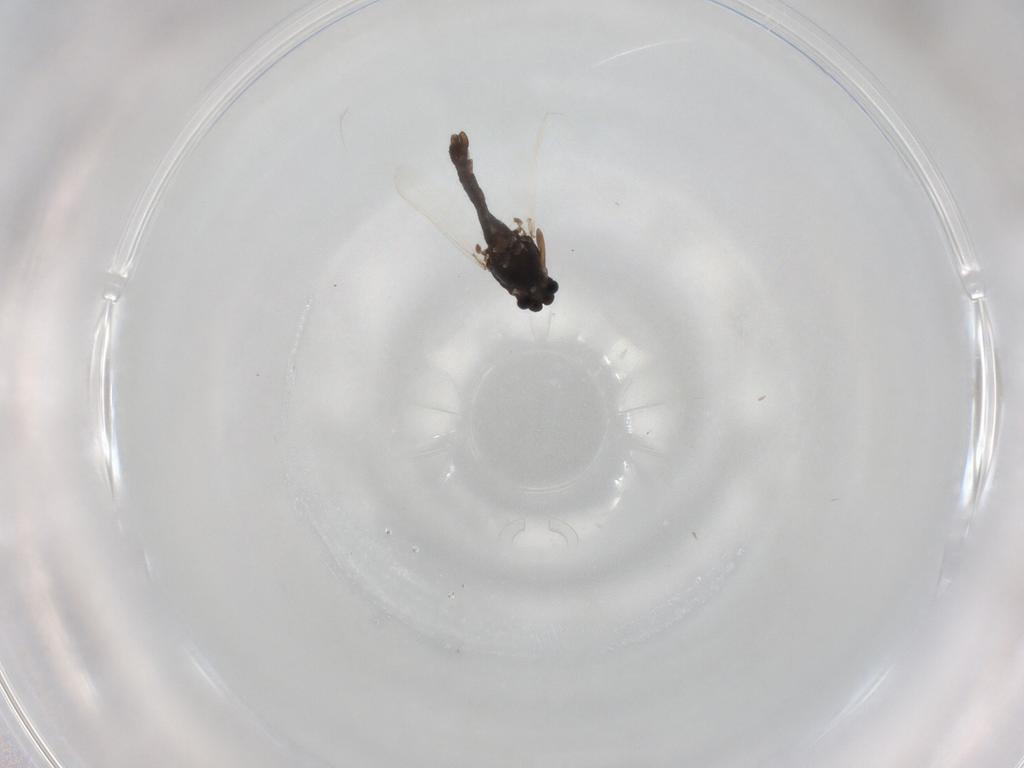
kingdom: Animalia
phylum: Arthropoda
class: Insecta
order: Diptera
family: Chironomidae
